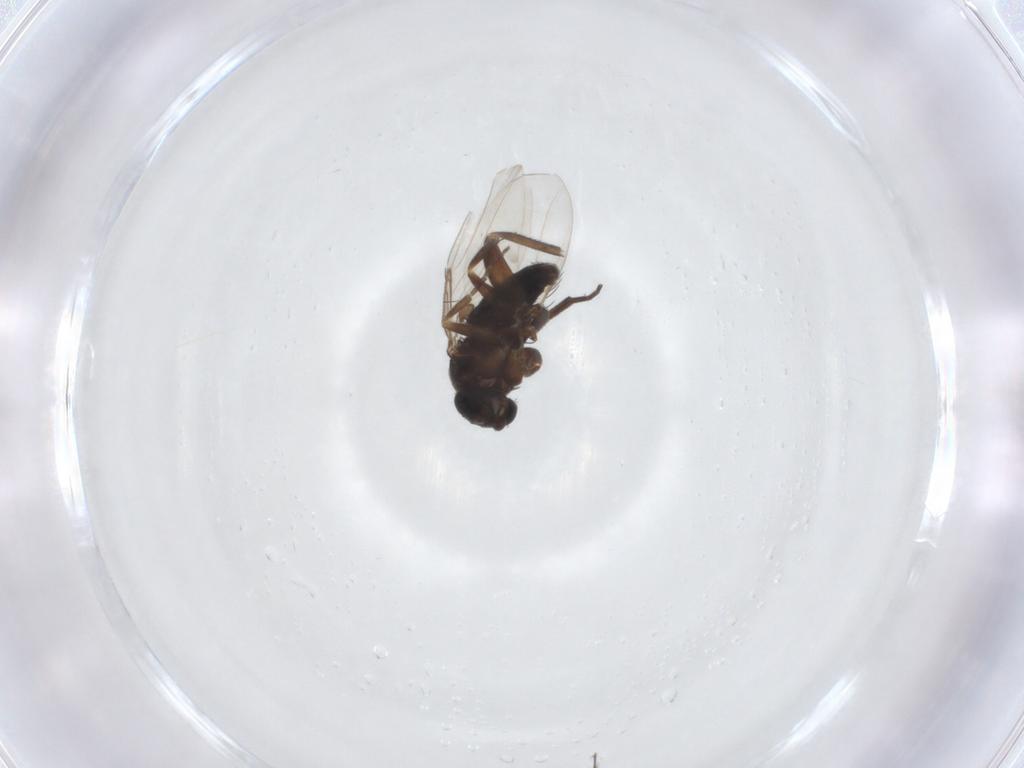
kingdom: Animalia
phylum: Arthropoda
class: Insecta
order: Diptera
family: Phoridae
